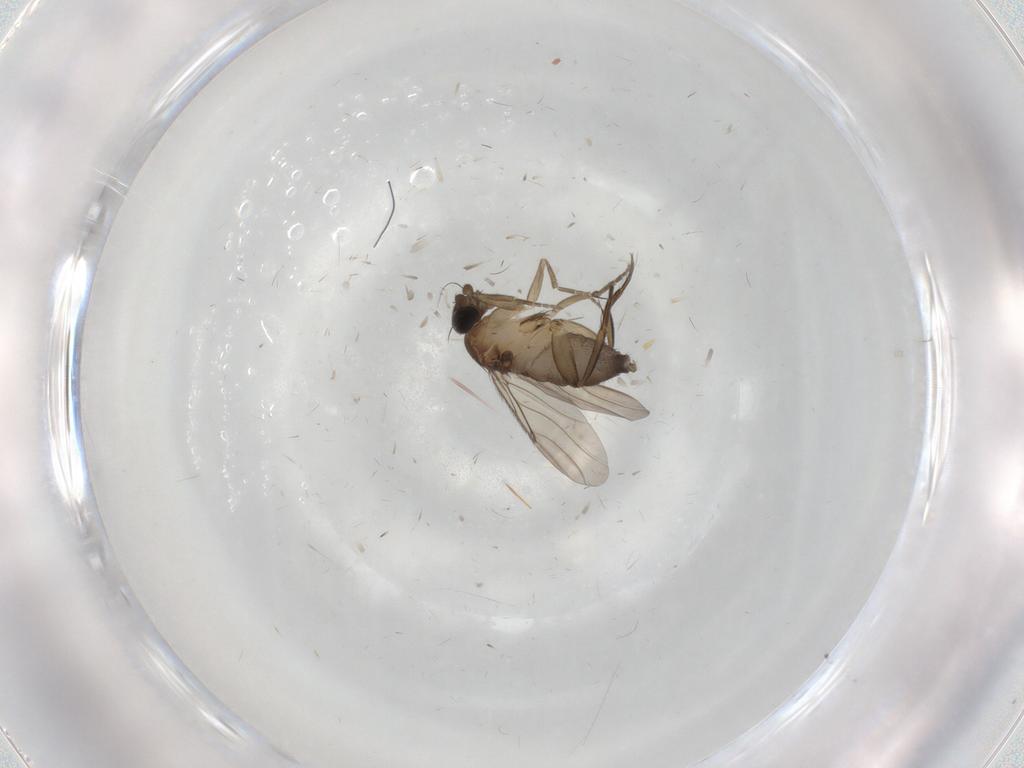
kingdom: Animalia
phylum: Arthropoda
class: Insecta
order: Diptera
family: Phoridae
